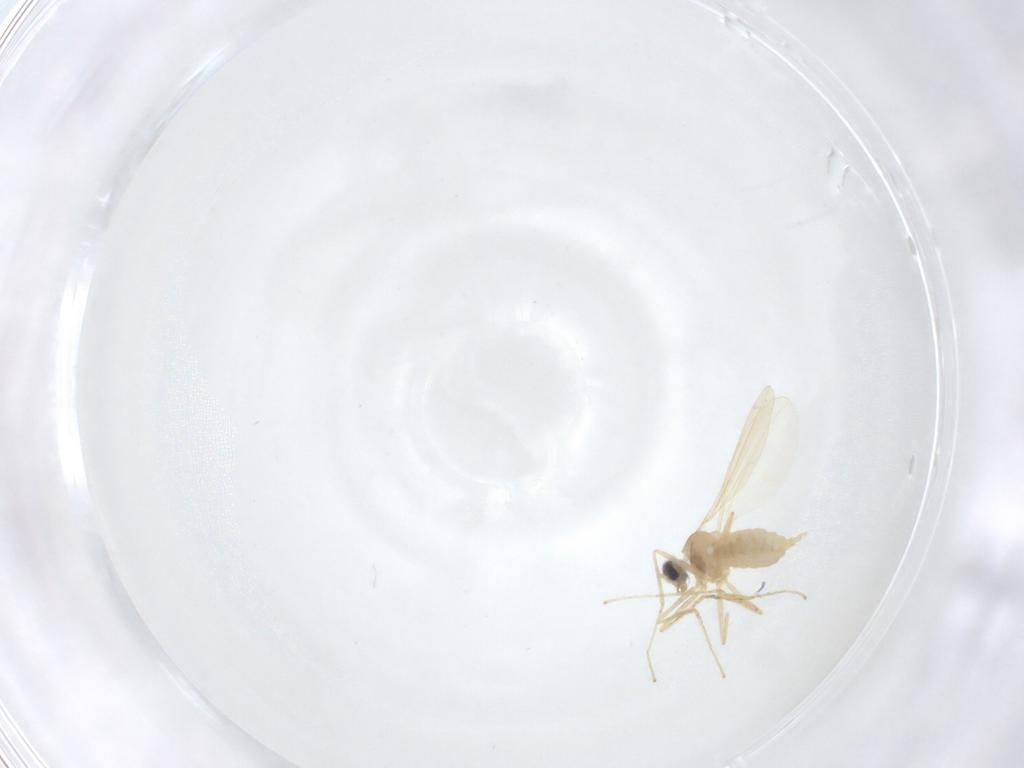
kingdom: Animalia
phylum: Arthropoda
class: Insecta
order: Diptera
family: Cecidomyiidae
